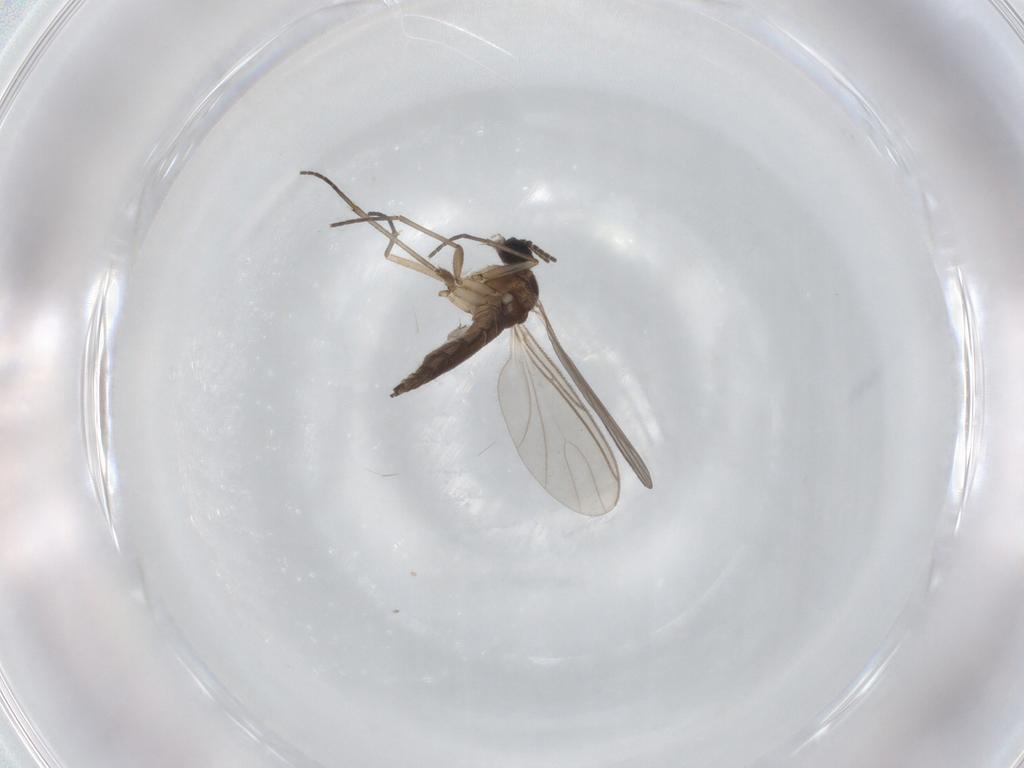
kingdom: Animalia
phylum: Arthropoda
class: Insecta
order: Diptera
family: Sciaridae
